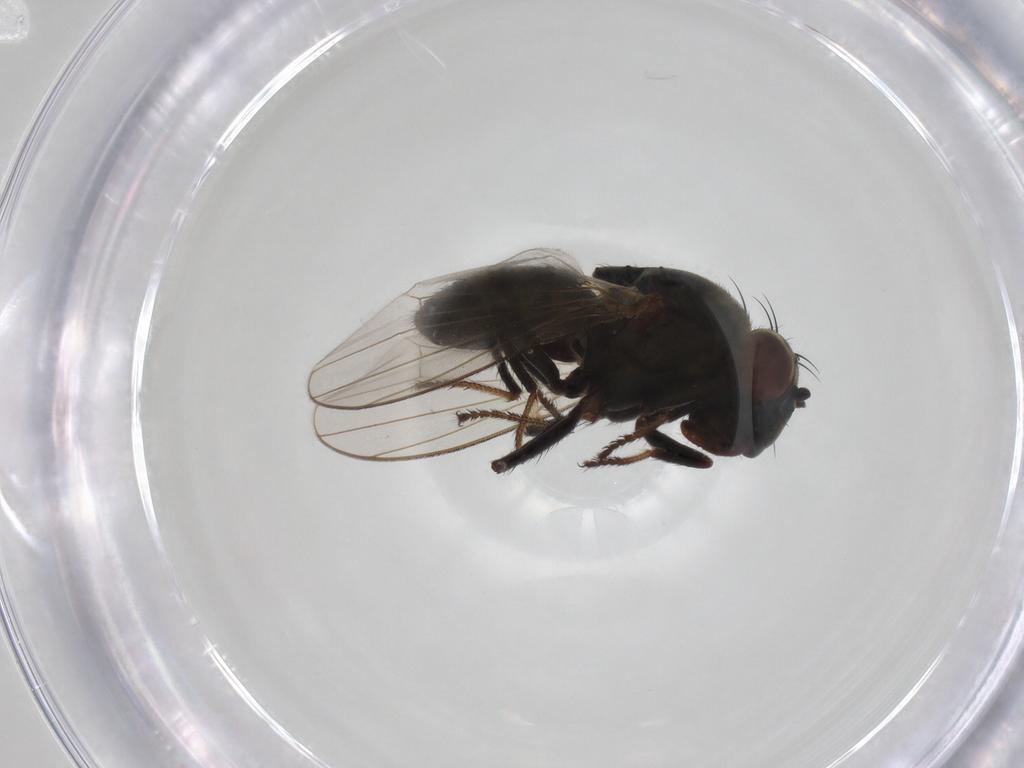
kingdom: Animalia
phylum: Arthropoda
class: Insecta
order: Diptera
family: Ephydridae
